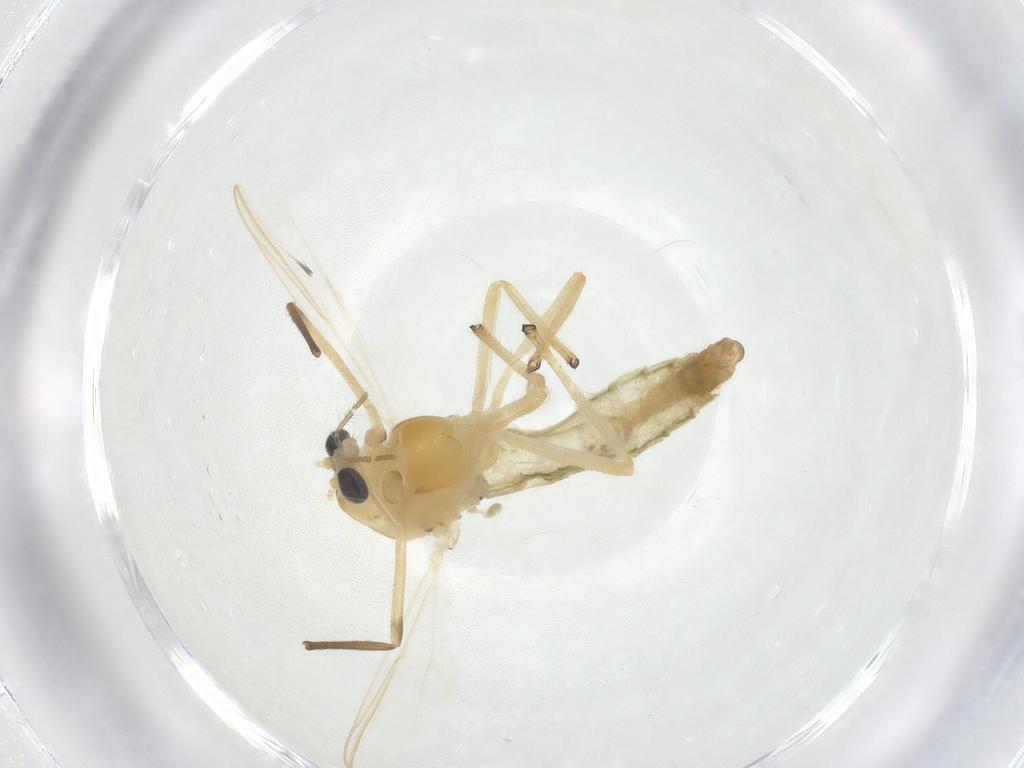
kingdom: Animalia
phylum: Arthropoda
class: Insecta
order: Diptera
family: Chironomidae
